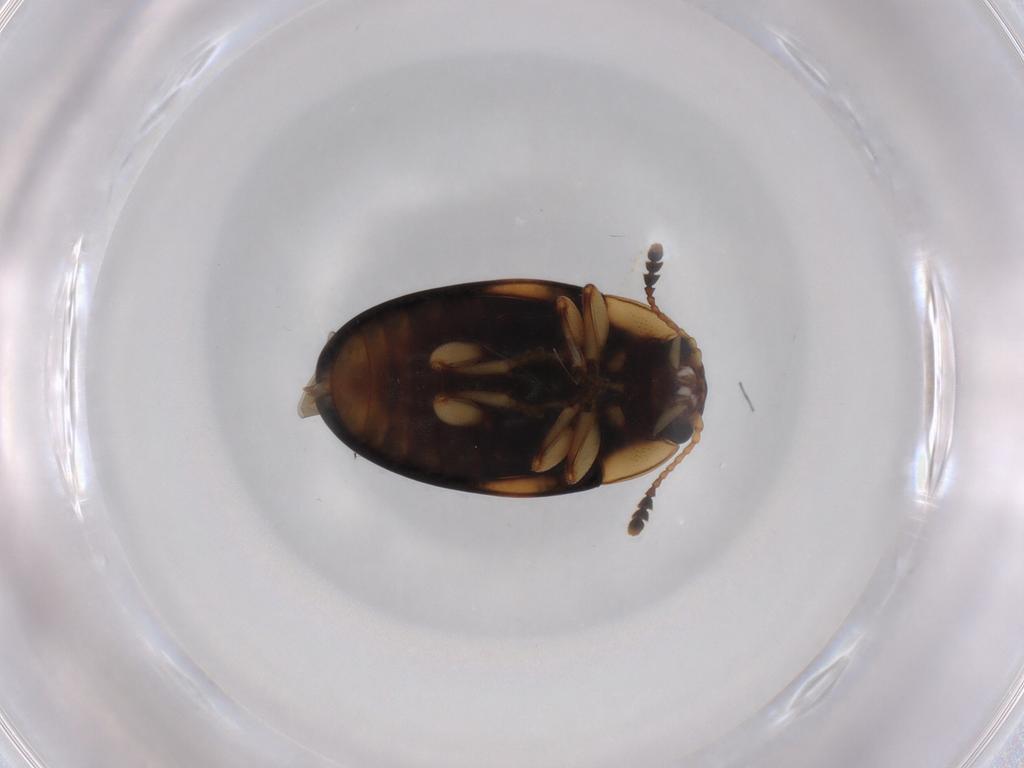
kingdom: Animalia
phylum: Arthropoda
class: Insecta
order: Coleoptera
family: Erotylidae
